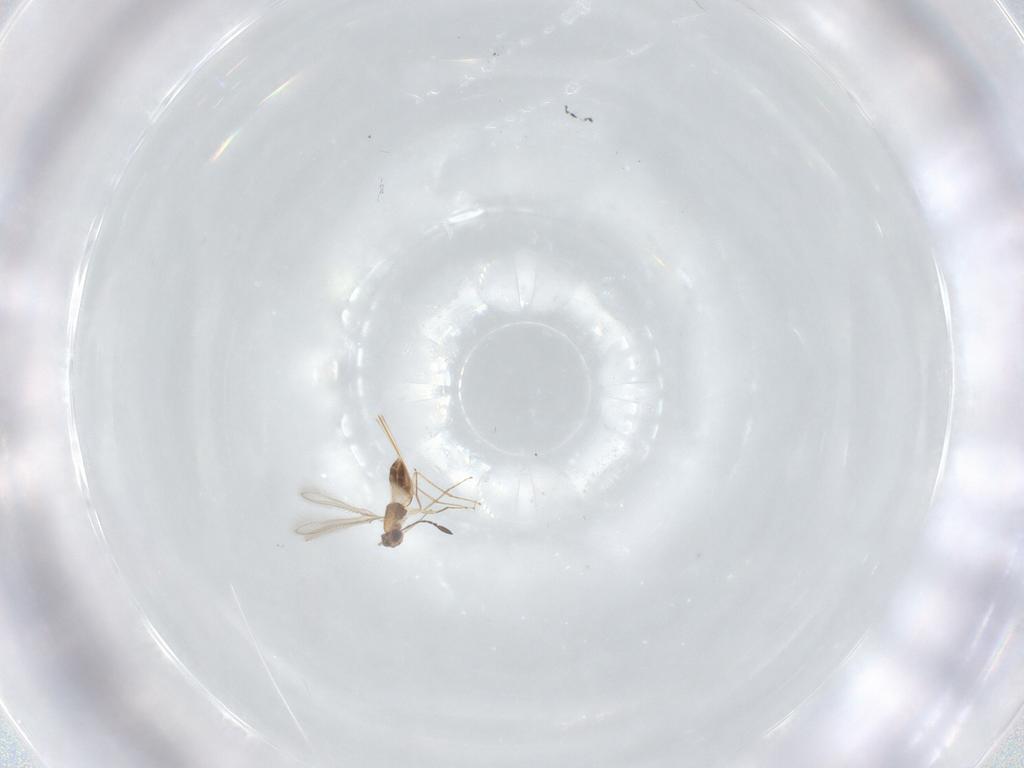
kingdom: Animalia
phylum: Arthropoda
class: Insecta
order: Hymenoptera
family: Mymaridae
